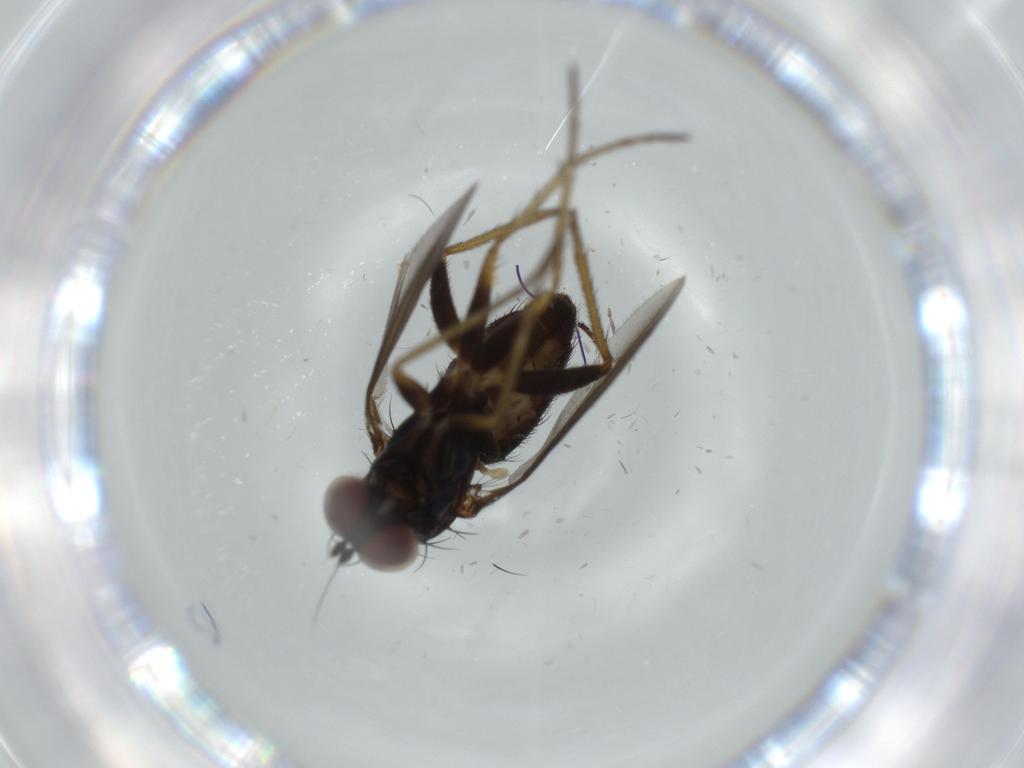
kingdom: Animalia
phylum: Arthropoda
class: Insecta
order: Diptera
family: Dolichopodidae
